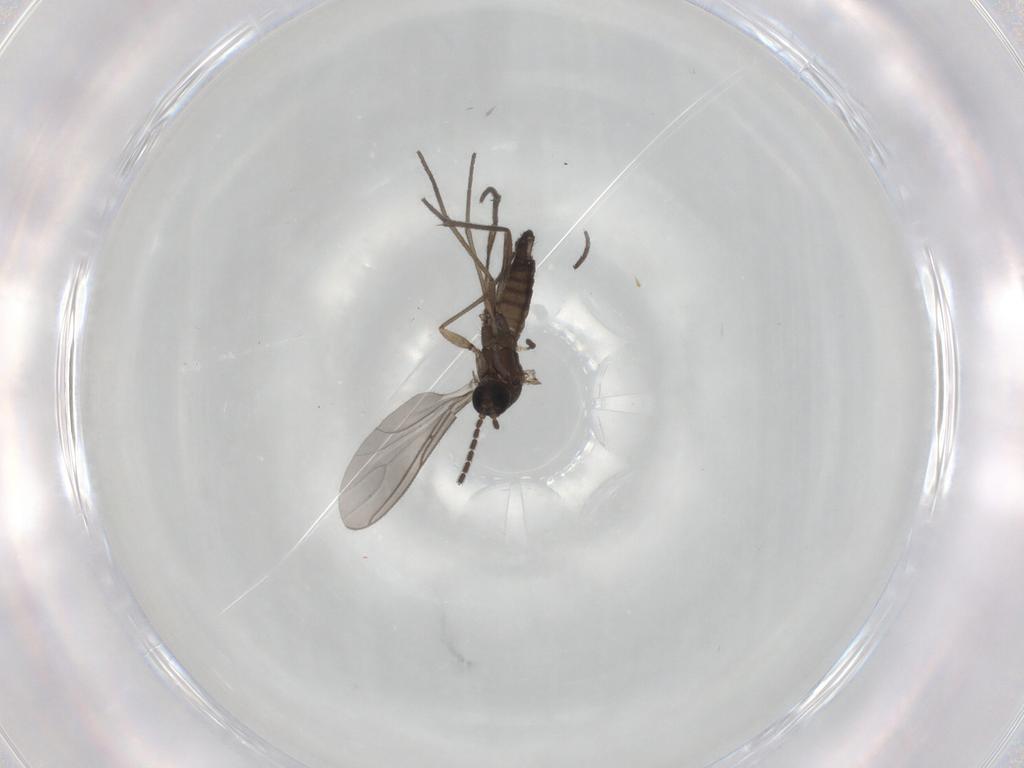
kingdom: Animalia
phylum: Arthropoda
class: Insecta
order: Diptera
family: Sciaridae
